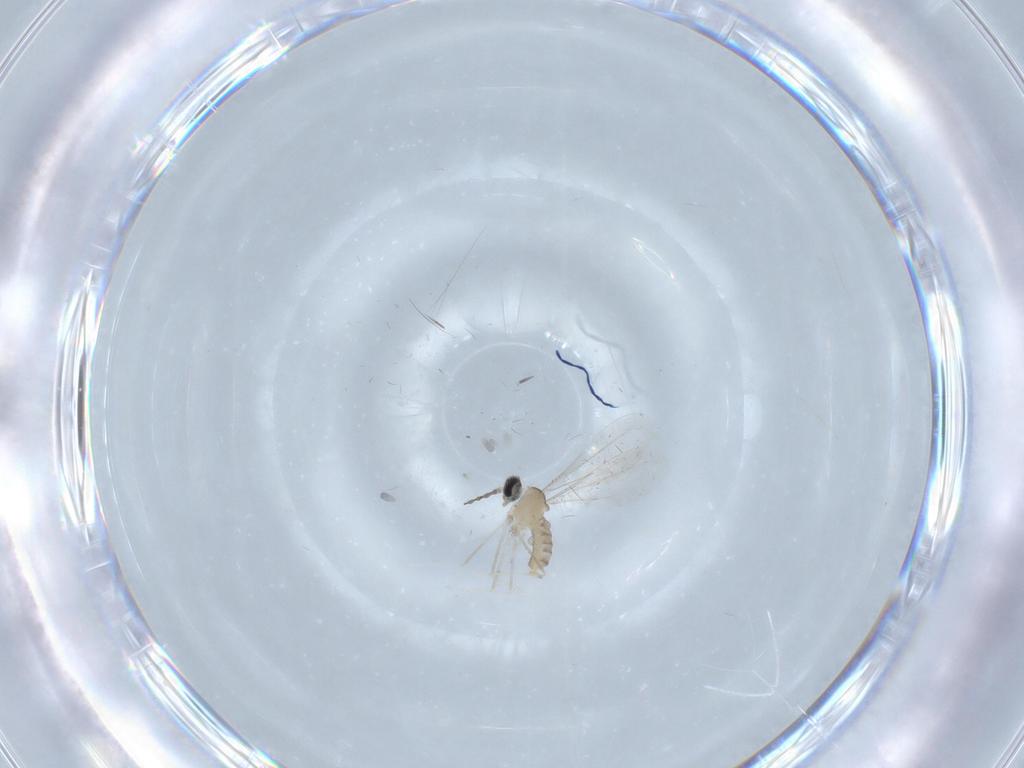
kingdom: Animalia
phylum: Arthropoda
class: Insecta
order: Diptera
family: Cecidomyiidae
